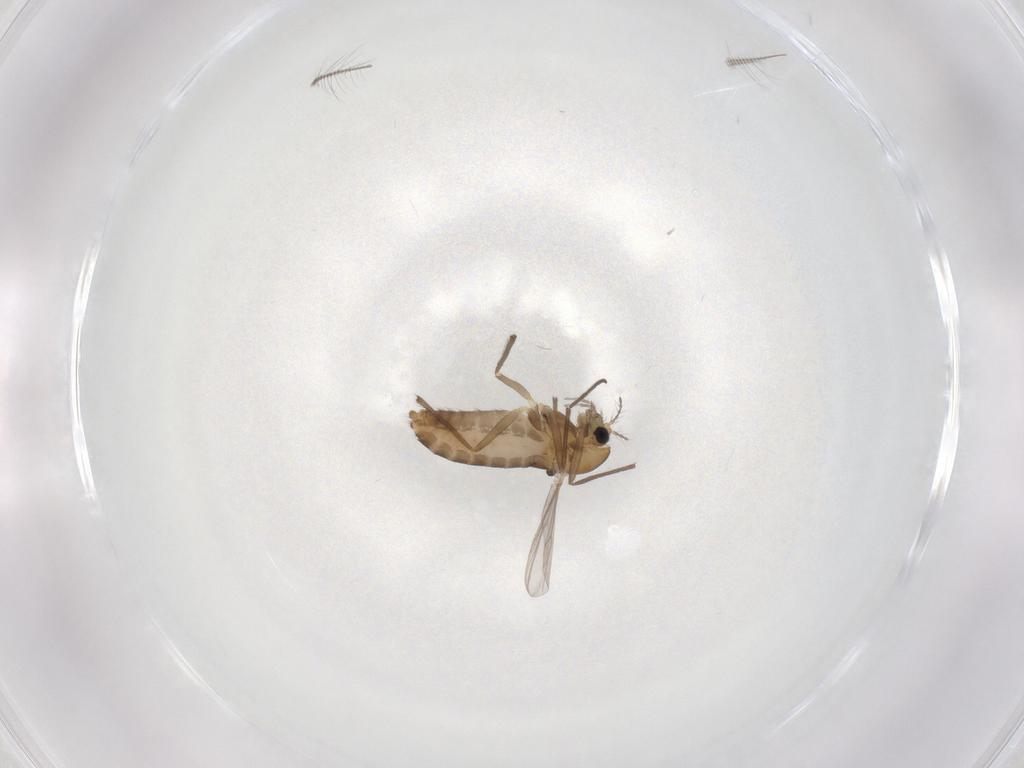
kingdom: Animalia
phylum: Arthropoda
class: Insecta
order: Diptera
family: Chironomidae
